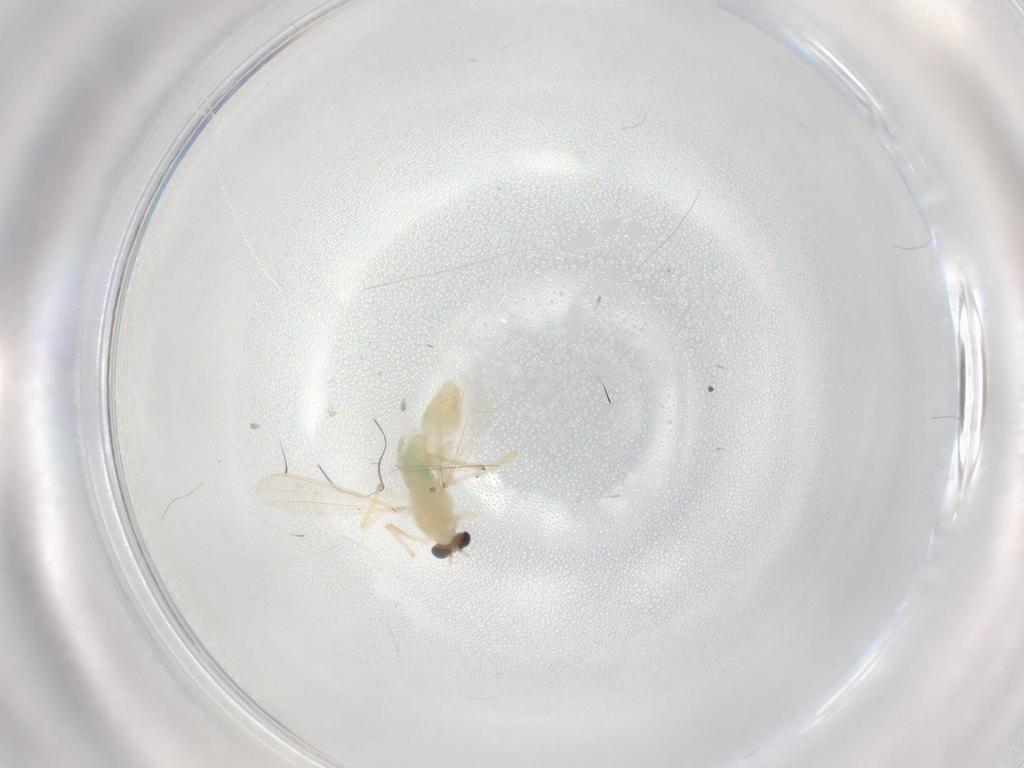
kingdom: Animalia
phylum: Arthropoda
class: Insecta
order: Diptera
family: Chironomidae
